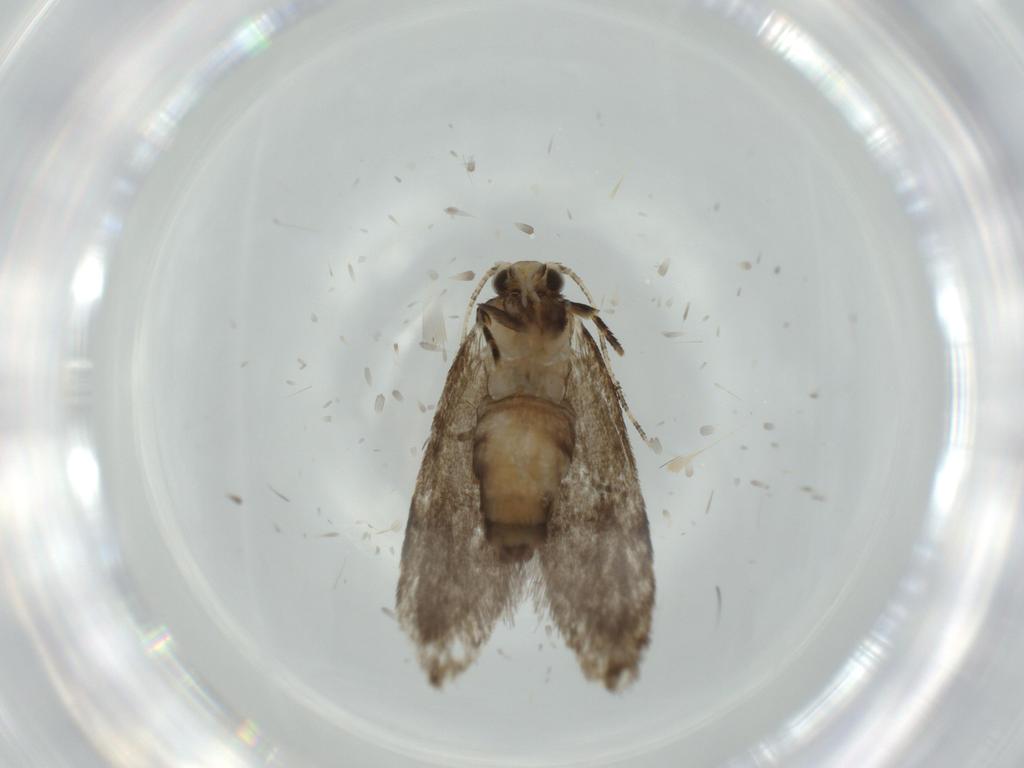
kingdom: Animalia
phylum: Arthropoda
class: Insecta
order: Lepidoptera
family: Tineidae
